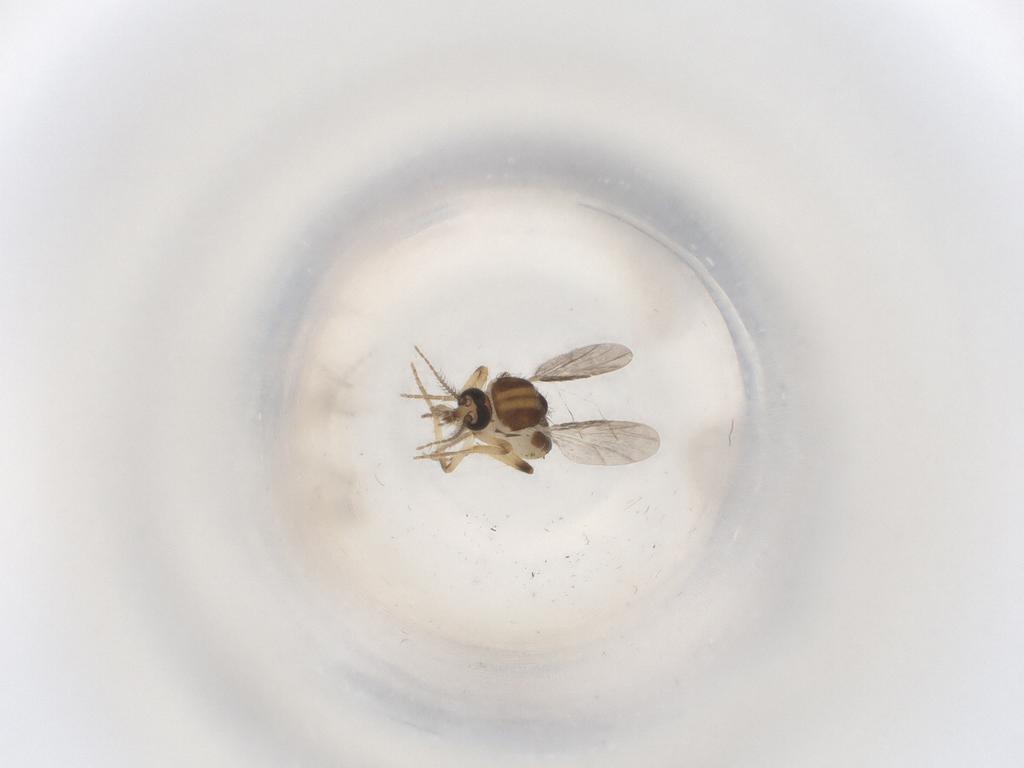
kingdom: Animalia
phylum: Arthropoda
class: Insecta
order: Diptera
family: Ceratopogonidae
